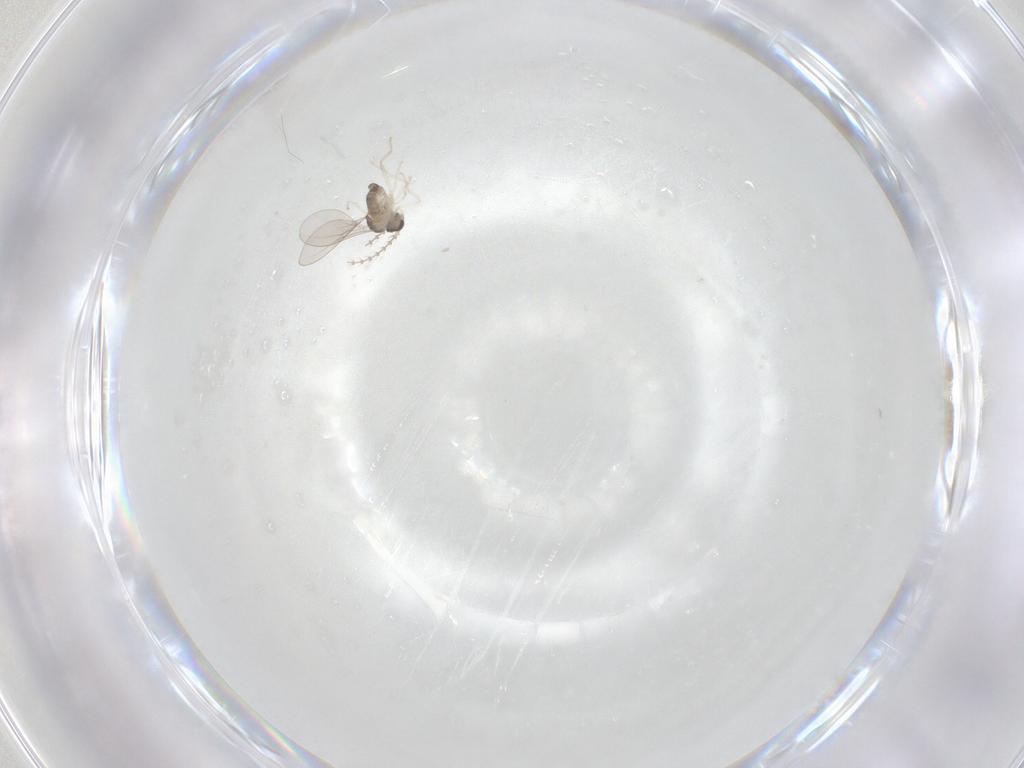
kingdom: Animalia
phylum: Arthropoda
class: Insecta
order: Diptera
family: Cecidomyiidae
